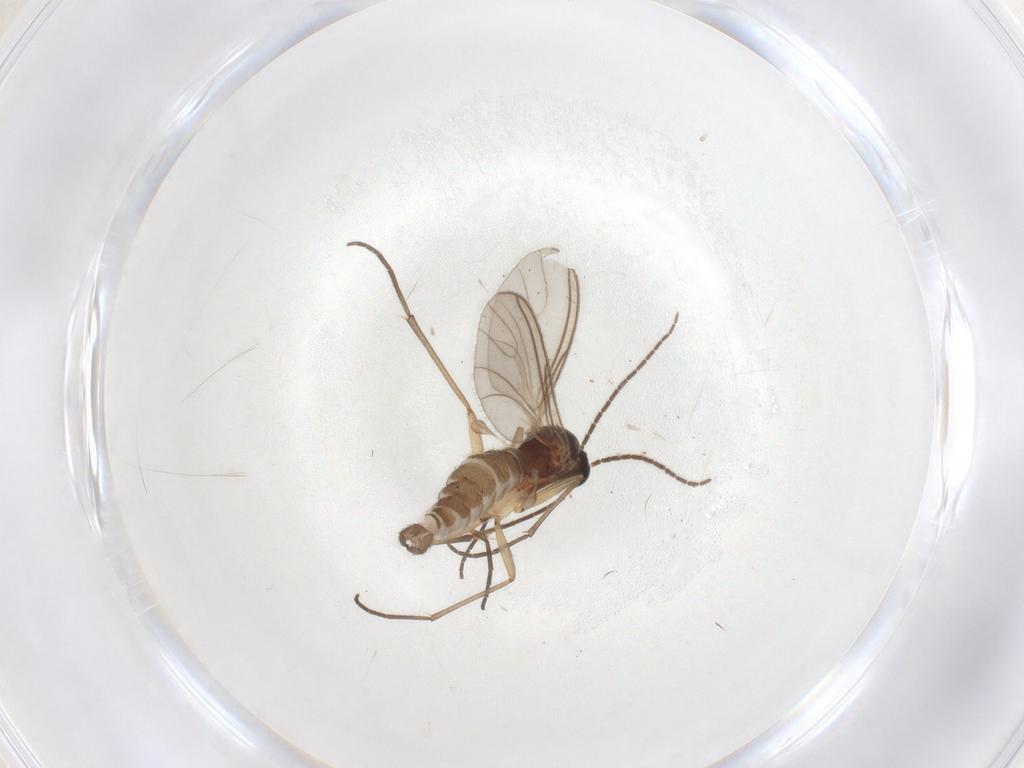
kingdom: Animalia
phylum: Arthropoda
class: Insecta
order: Diptera
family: Sciaridae
